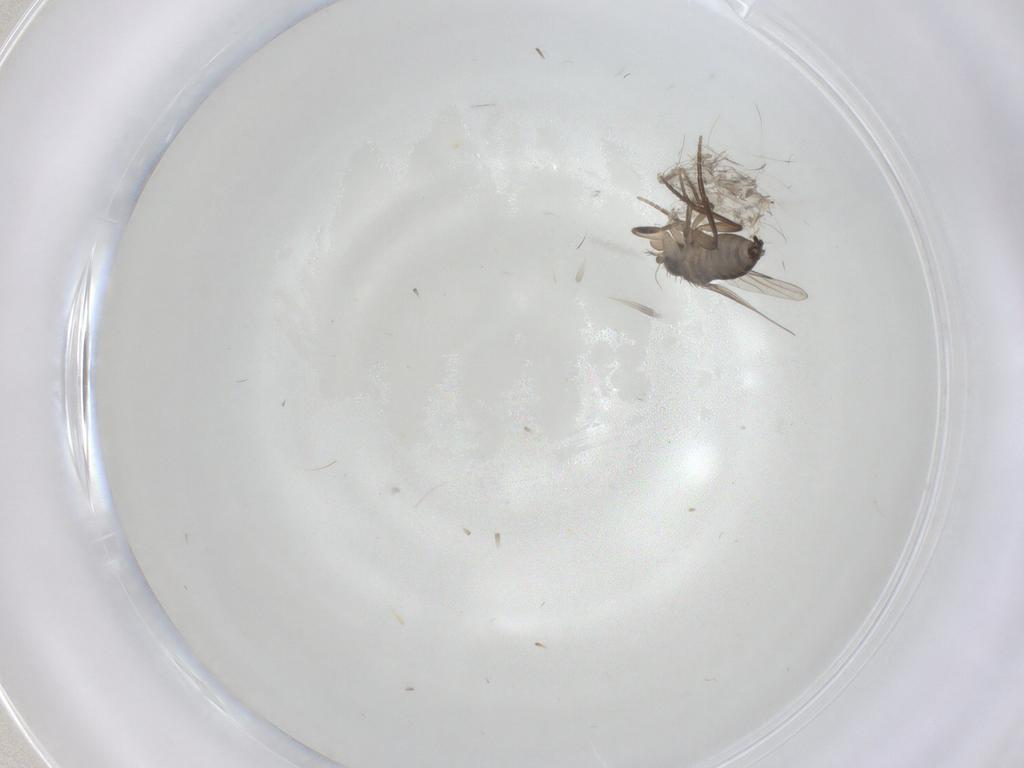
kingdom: Animalia
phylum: Arthropoda
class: Insecta
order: Diptera
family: Phoridae
